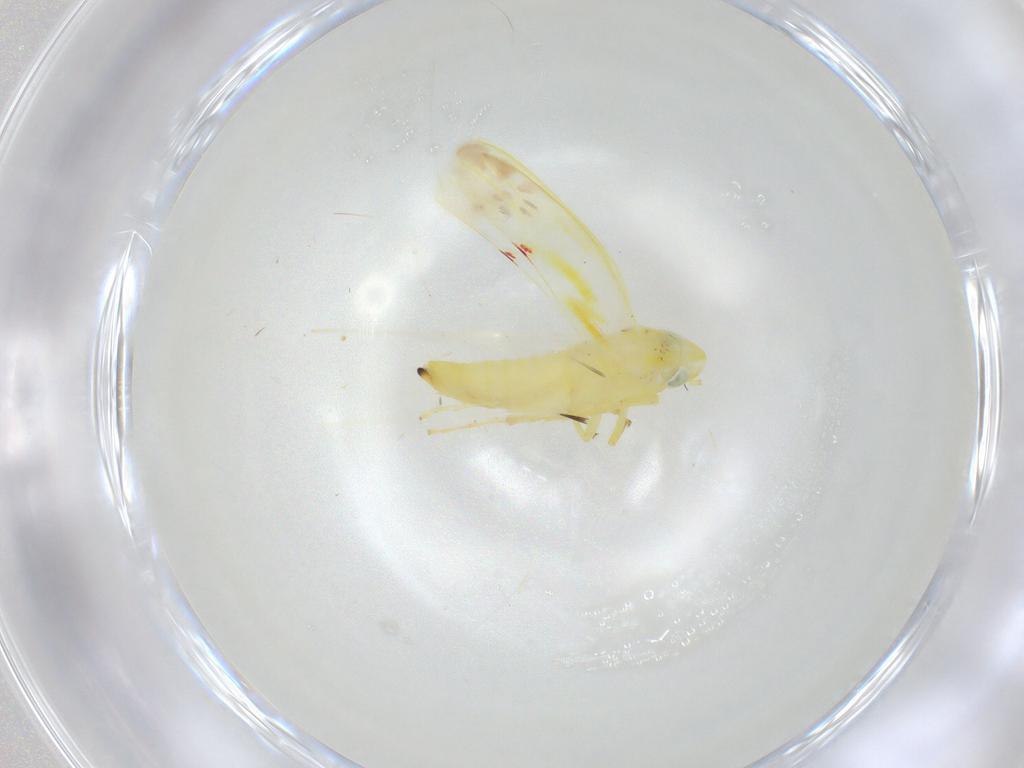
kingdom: Animalia
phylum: Arthropoda
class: Insecta
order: Hemiptera
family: Cicadellidae
